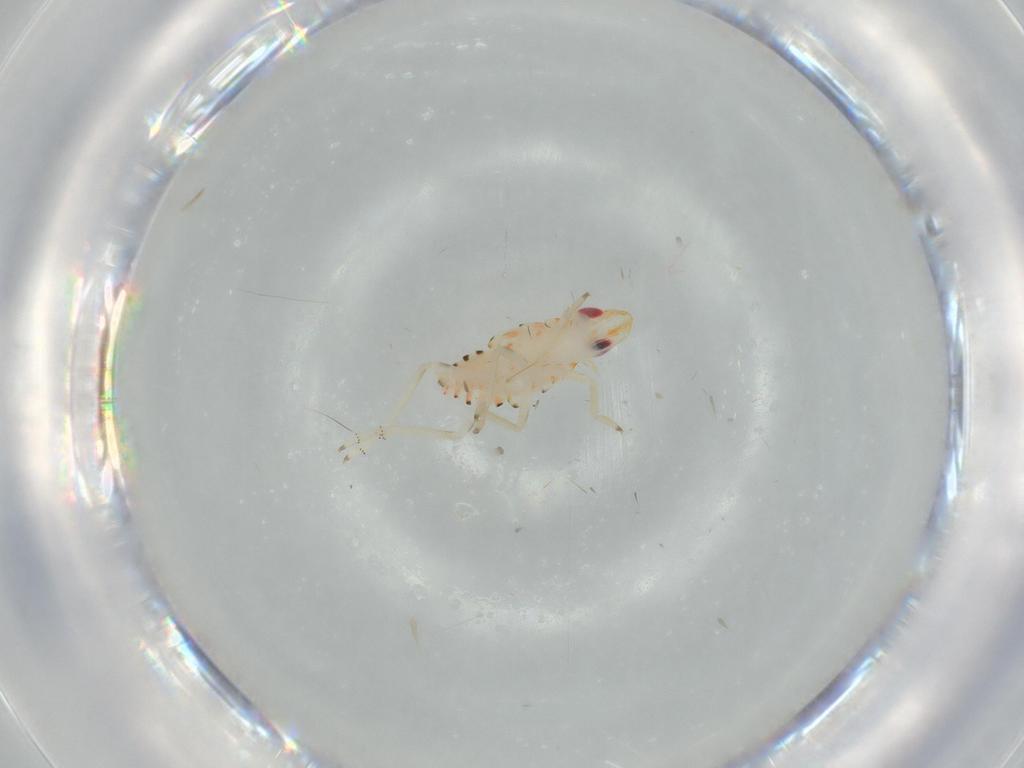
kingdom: Animalia
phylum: Arthropoda
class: Insecta
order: Hemiptera
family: Tropiduchidae
